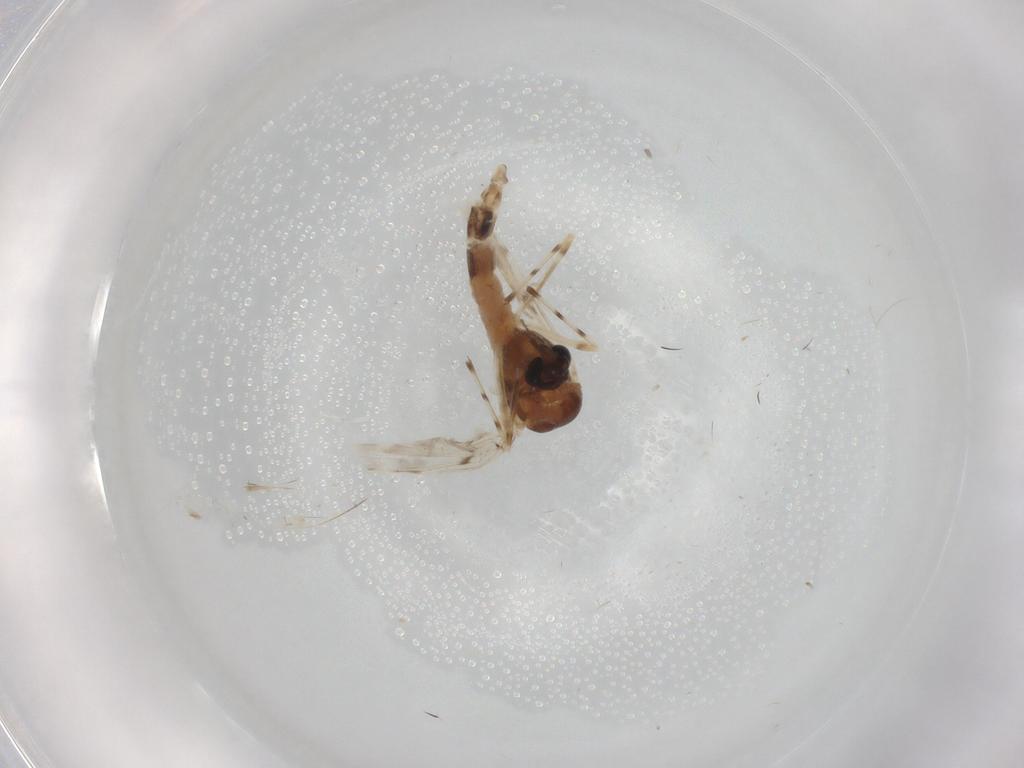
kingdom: Animalia
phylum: Arthropoda
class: Insecta
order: Diptera
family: Chironomidae
